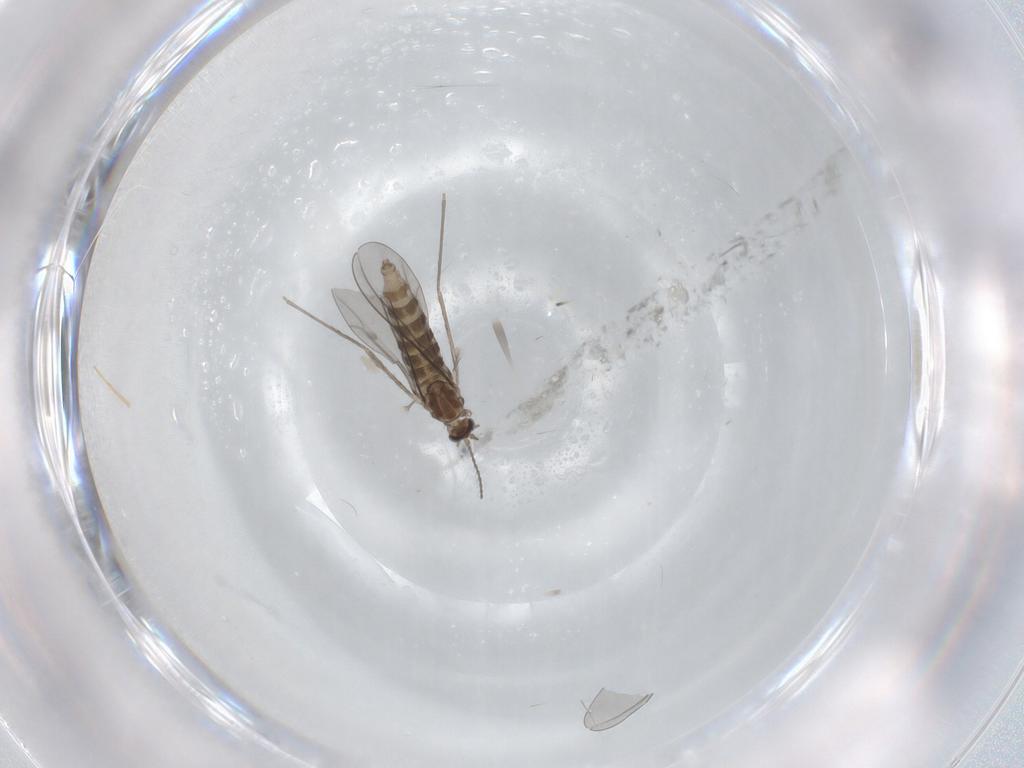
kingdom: Animalia
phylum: Arthropoda
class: Insecta
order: Diptera
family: Cecidomyiidae
